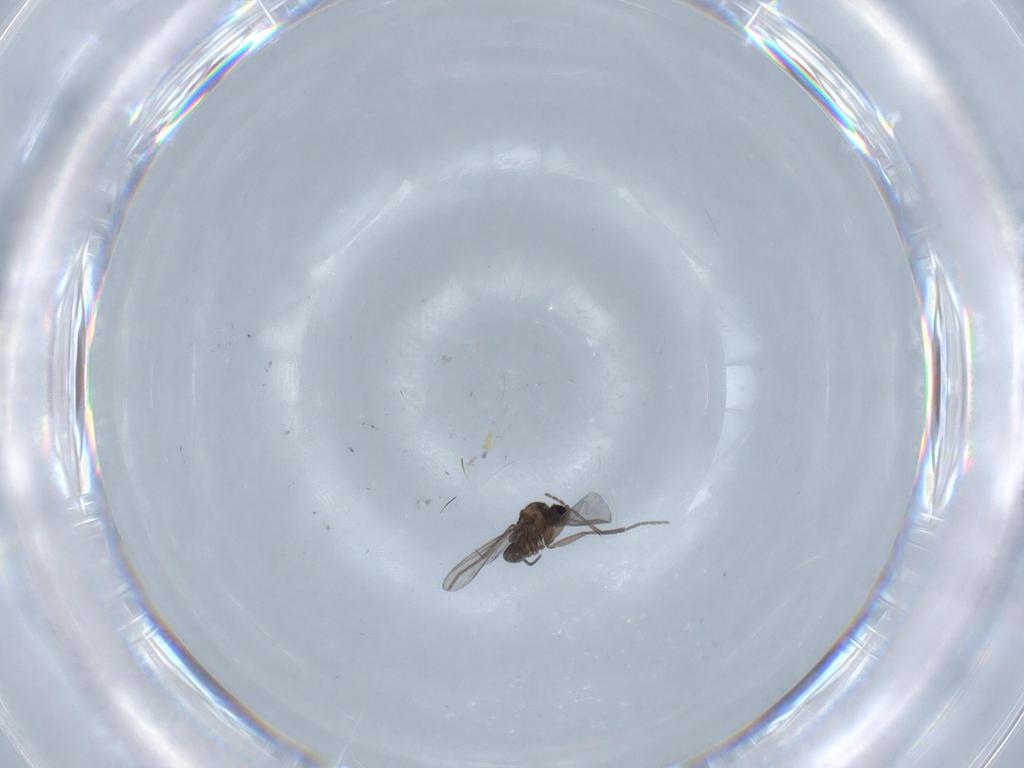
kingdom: Animalia
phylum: Arthropoda
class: Insecta
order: Diptera
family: Sciaridae
